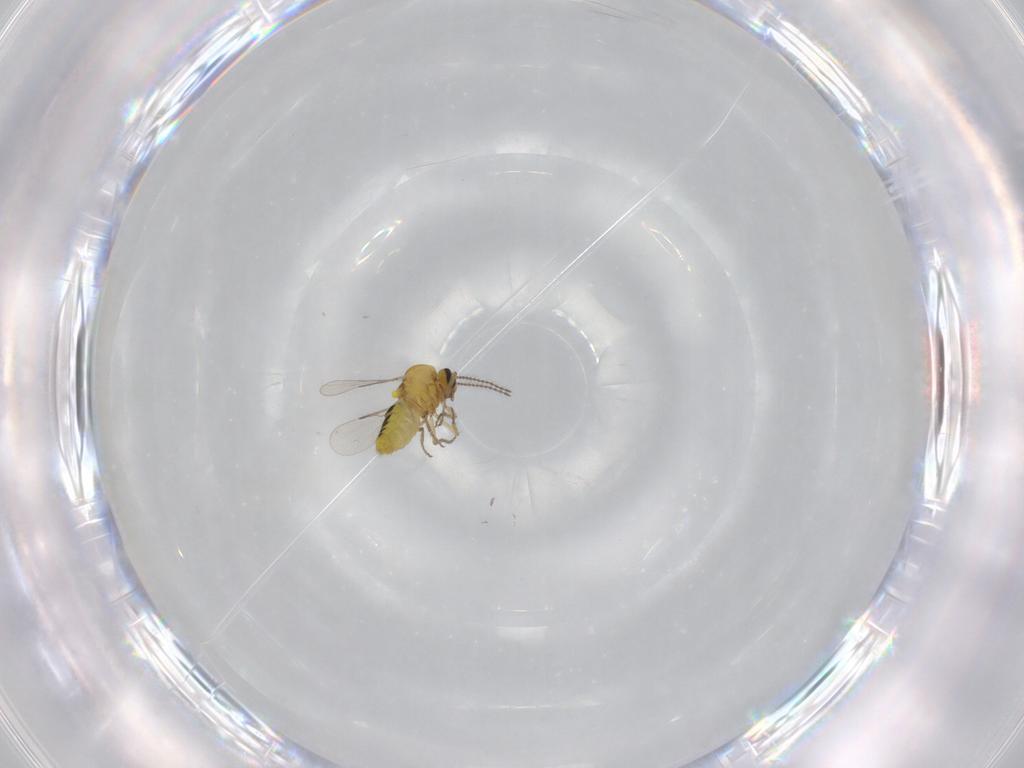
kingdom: Animalia
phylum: Arthropoda
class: Insecta
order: Diptera
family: Ceratopogonidae
